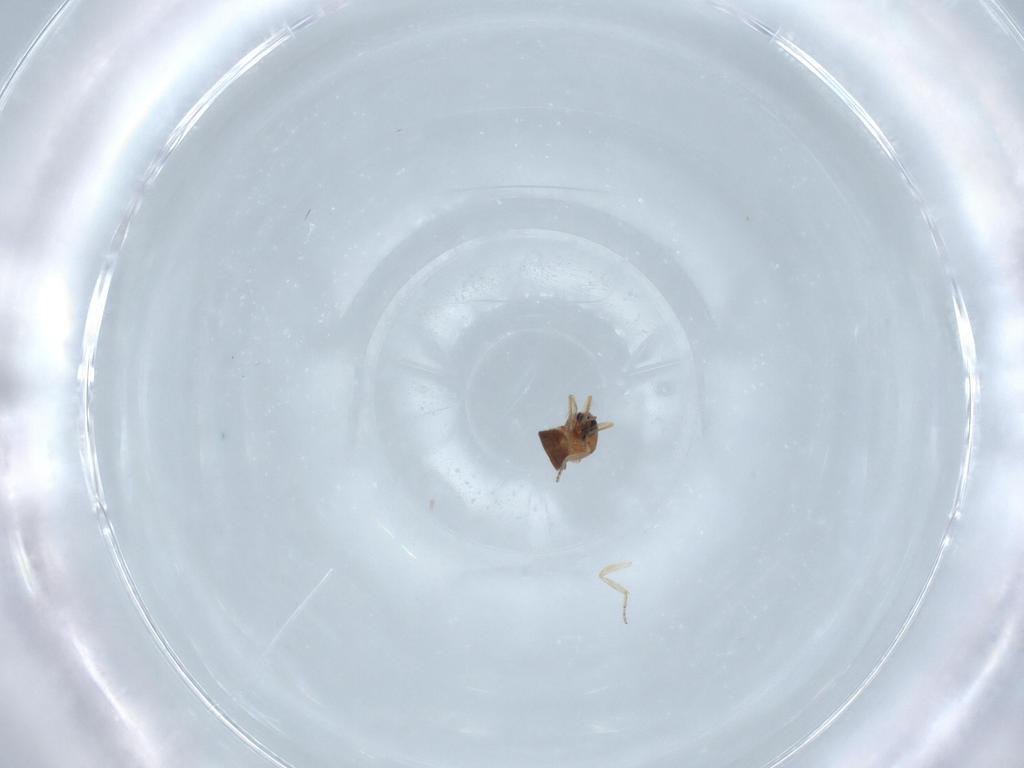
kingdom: Animalia
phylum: Arthropoda
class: Insecta
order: Diptera
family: Ceratopogonidae
